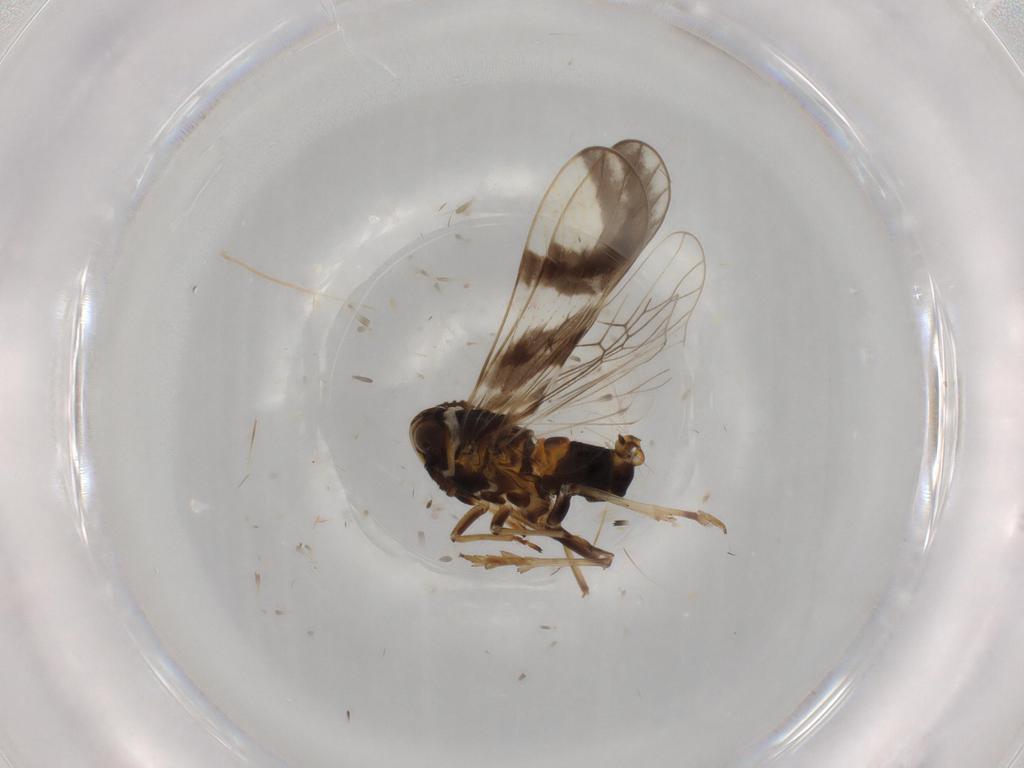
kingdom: Animalia
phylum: Arthropoda
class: Insecta
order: Hemiptera
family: Delphacidae
